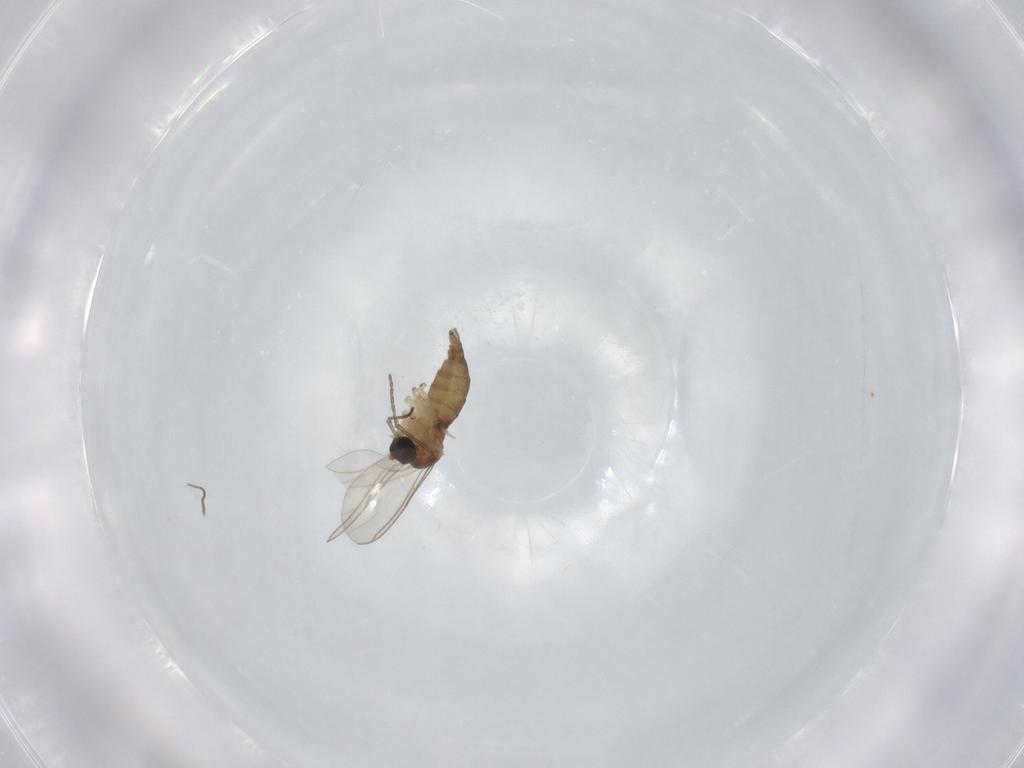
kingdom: Animalia
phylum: Arthropoda
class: Insecta
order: Diptera
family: Sciaridae
